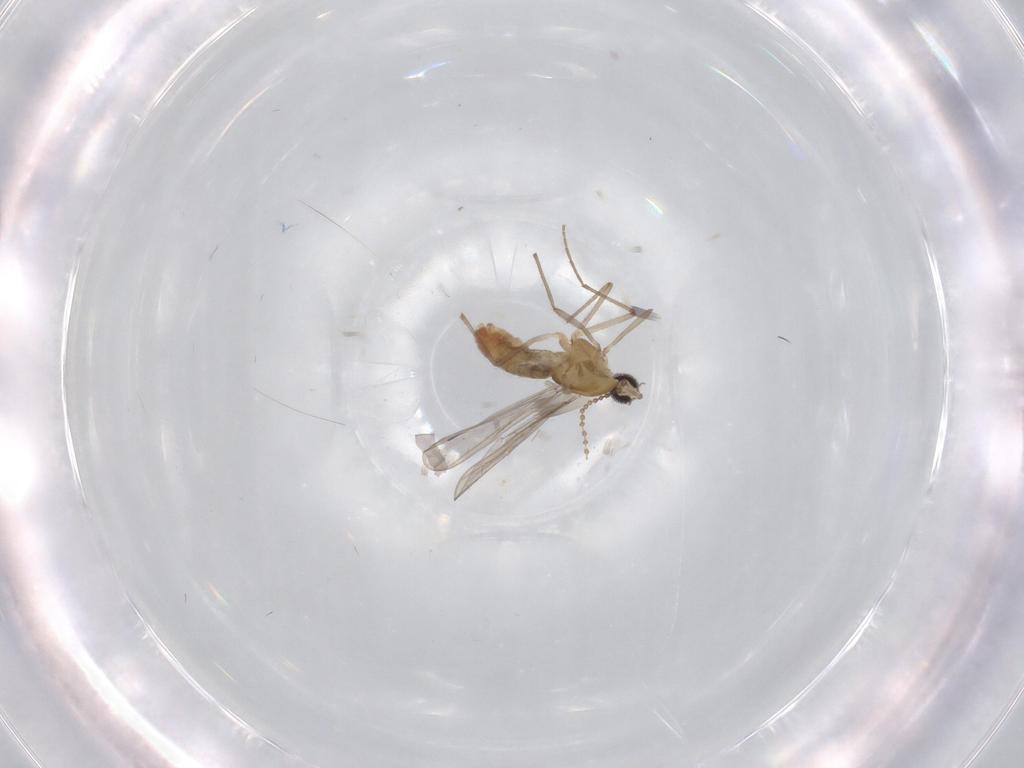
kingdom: Animalia
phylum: Arthropoda
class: Insecta
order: Diptera
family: Chironomidae
